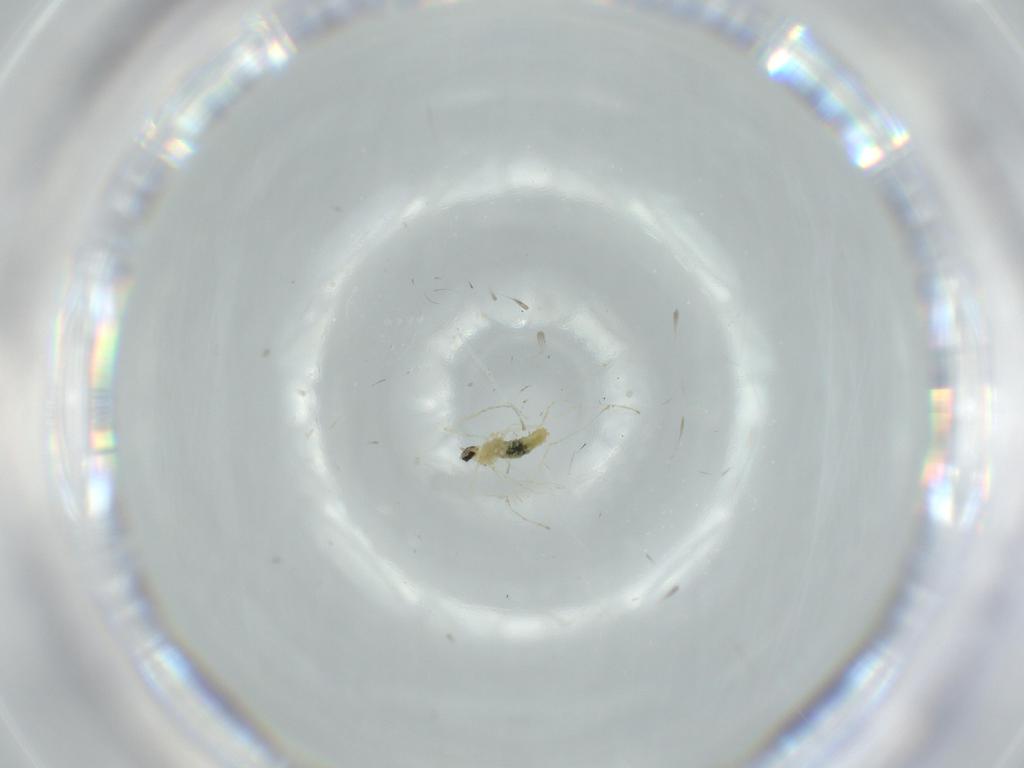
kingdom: Animalia
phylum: Arthropoda
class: Insecta
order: Diptera
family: Cecidomyiidae
